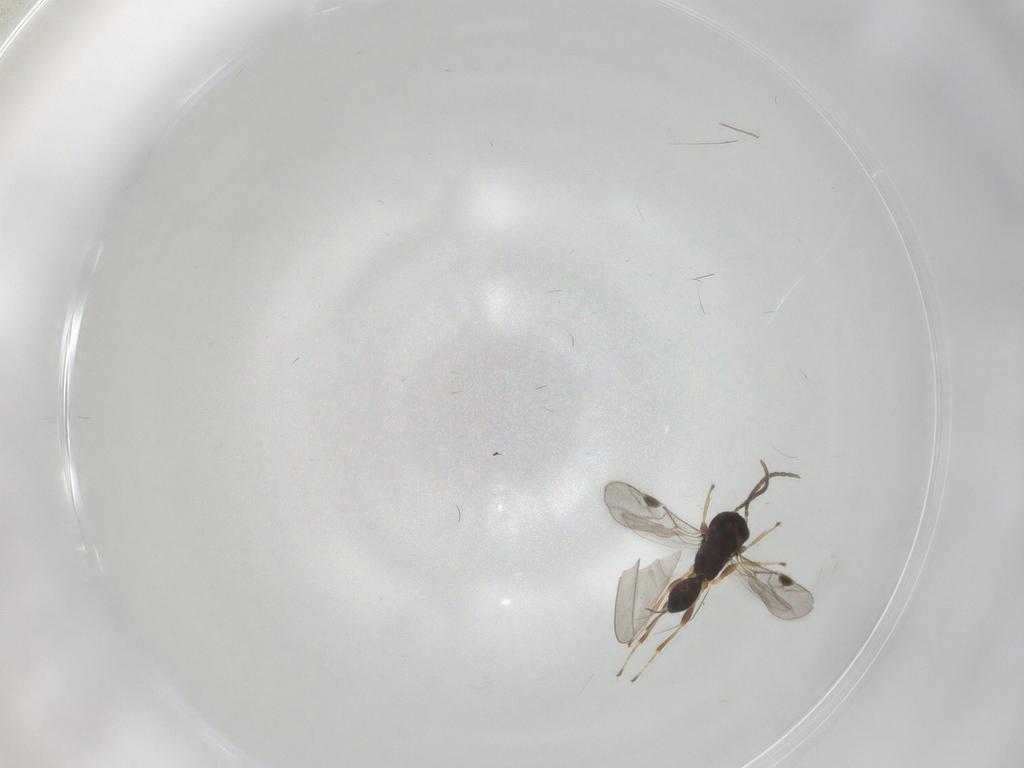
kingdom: Animalia
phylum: Arthropoda
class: Insecta
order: Hymenoptera
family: Braconidae
